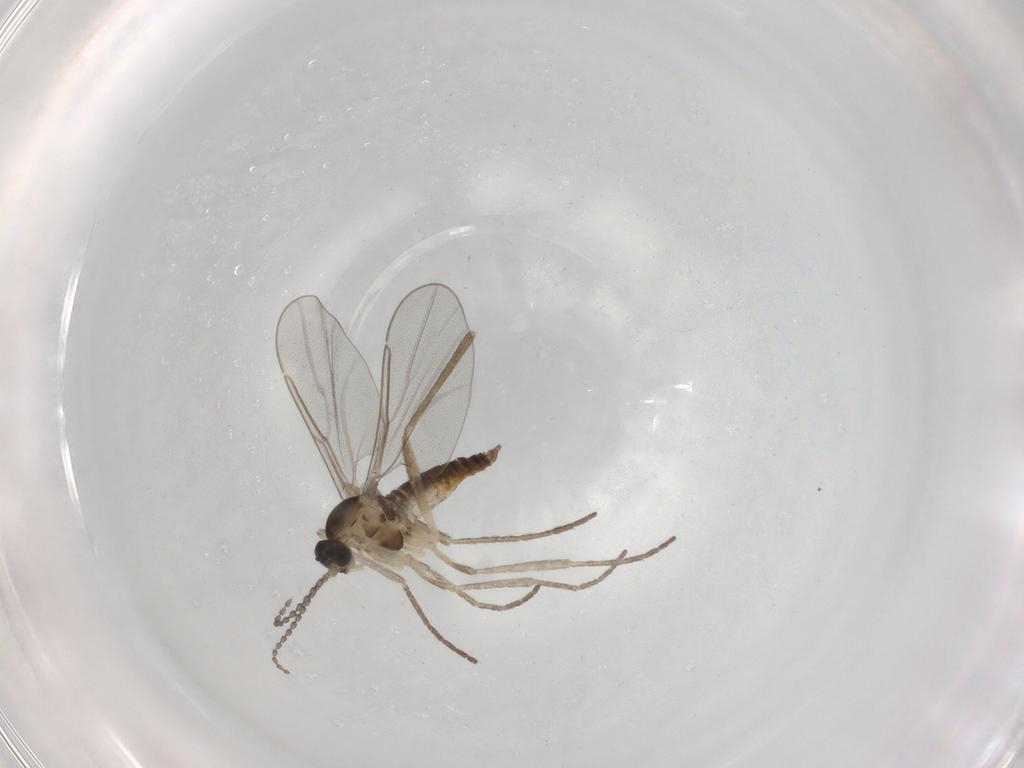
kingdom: Animalia
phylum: Arthropoda
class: Insecta
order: Diptera
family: Cecidomyiidae
